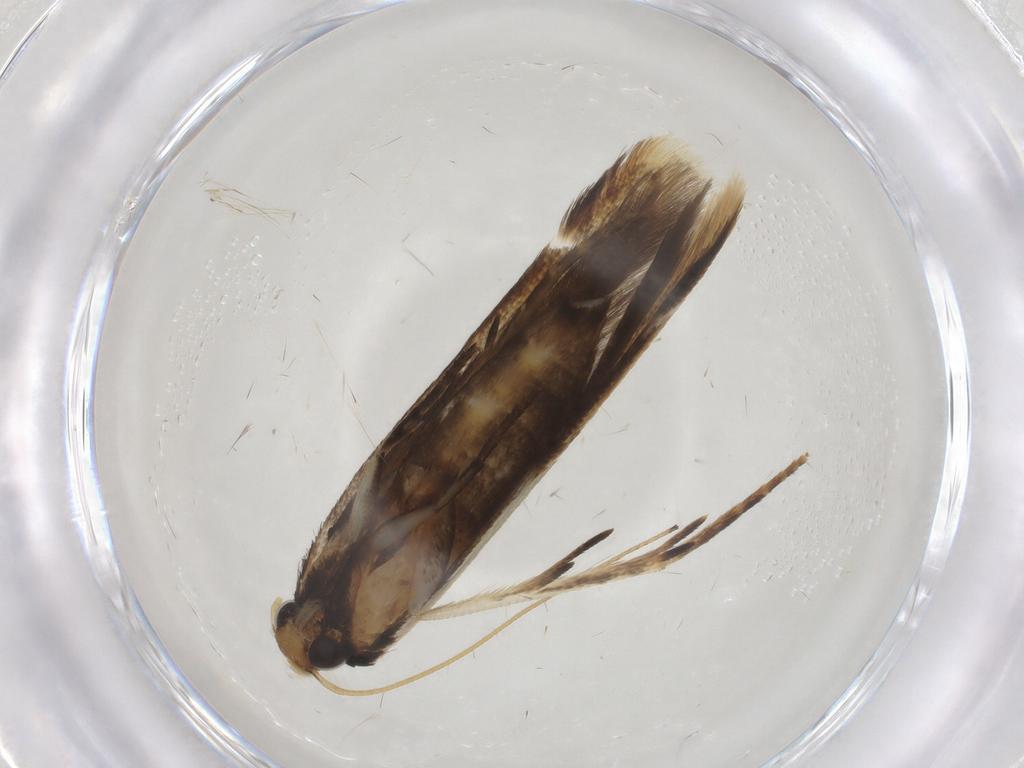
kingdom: Animalia
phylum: Arthropoda
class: Insecta
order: Lepidoptera
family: Gelechiidae
